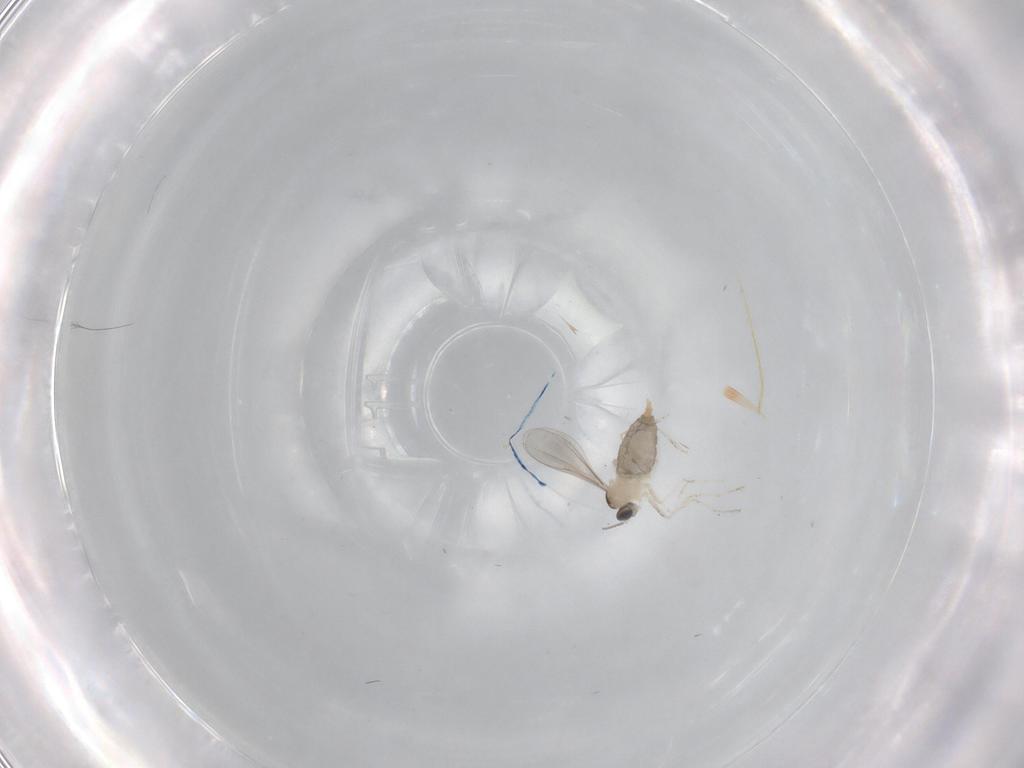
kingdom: Animalia
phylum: Arthropoda
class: Insecta
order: Diptera
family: Cecidomyiidae
